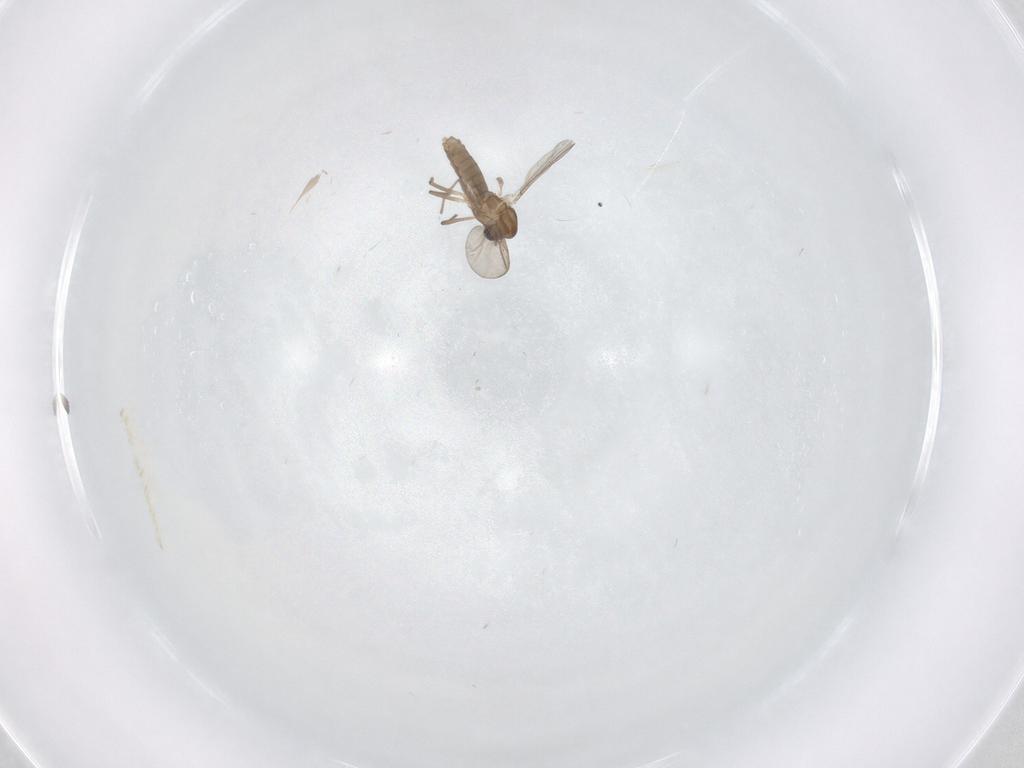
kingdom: Animalia
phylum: Arthropoda
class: Insecta
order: Diptera
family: Chironomidae
